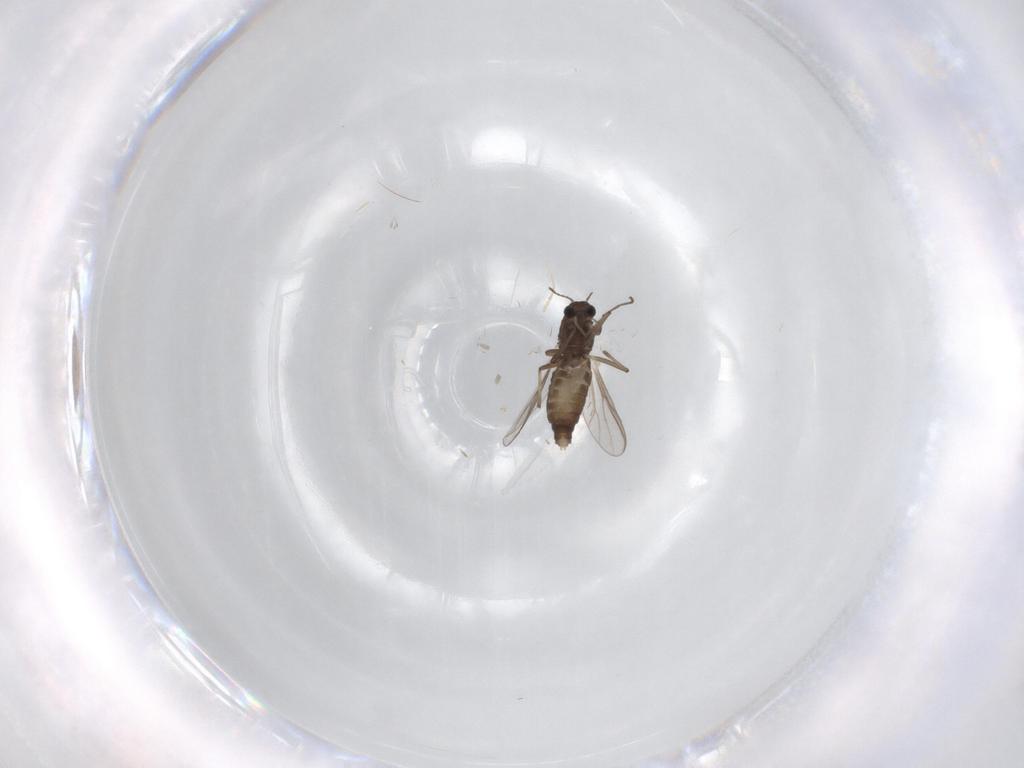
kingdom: Animalia
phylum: Arthropoda
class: Insecta
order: Diptera
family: Chironomidae
